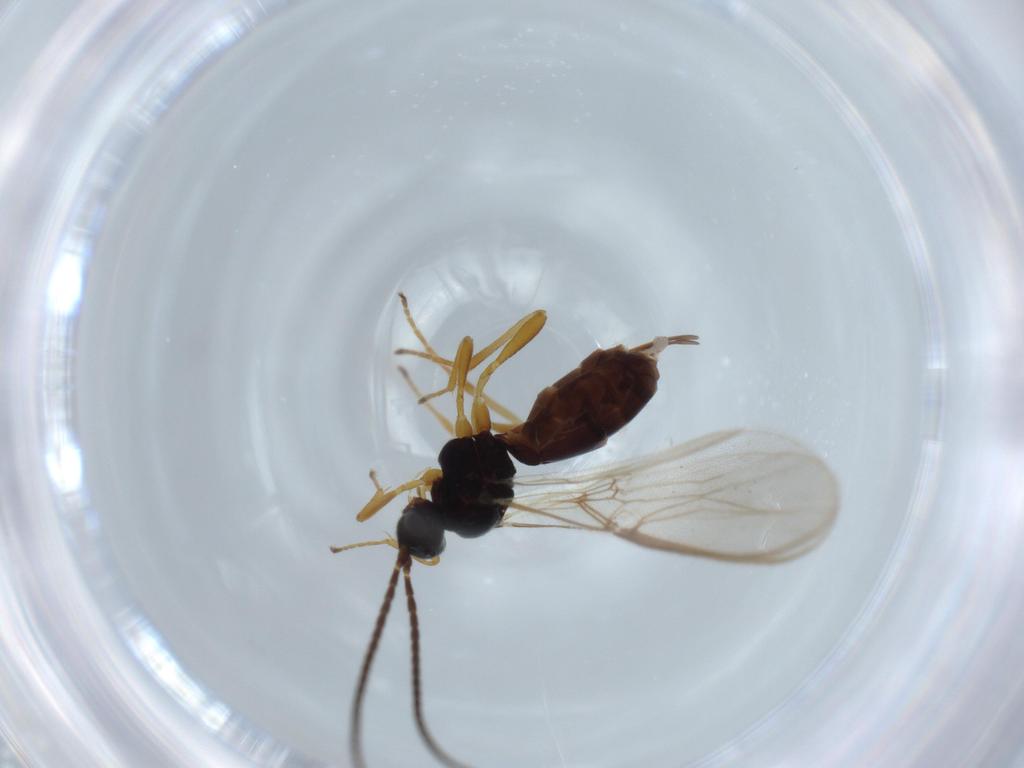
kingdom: Animalia
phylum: Arthropoda
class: Insecta
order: Hymenoptera
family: Braconidae
